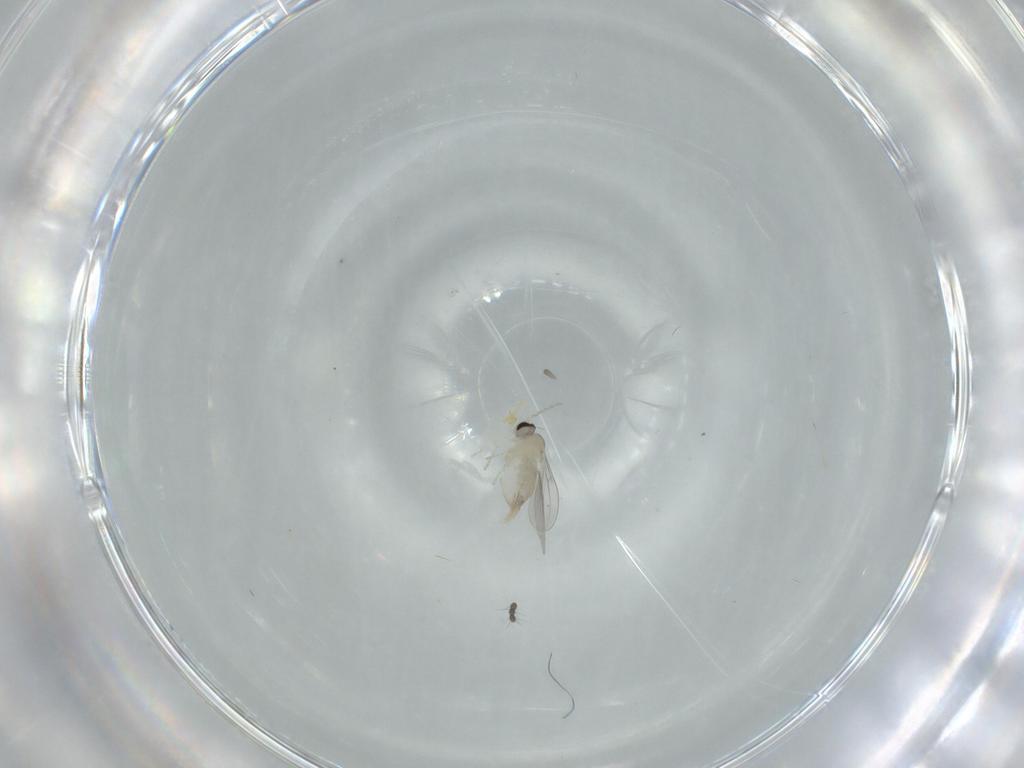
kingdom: Animalia
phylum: Arthropoda
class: Insecta
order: Diptera
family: Cecidomyiidae
